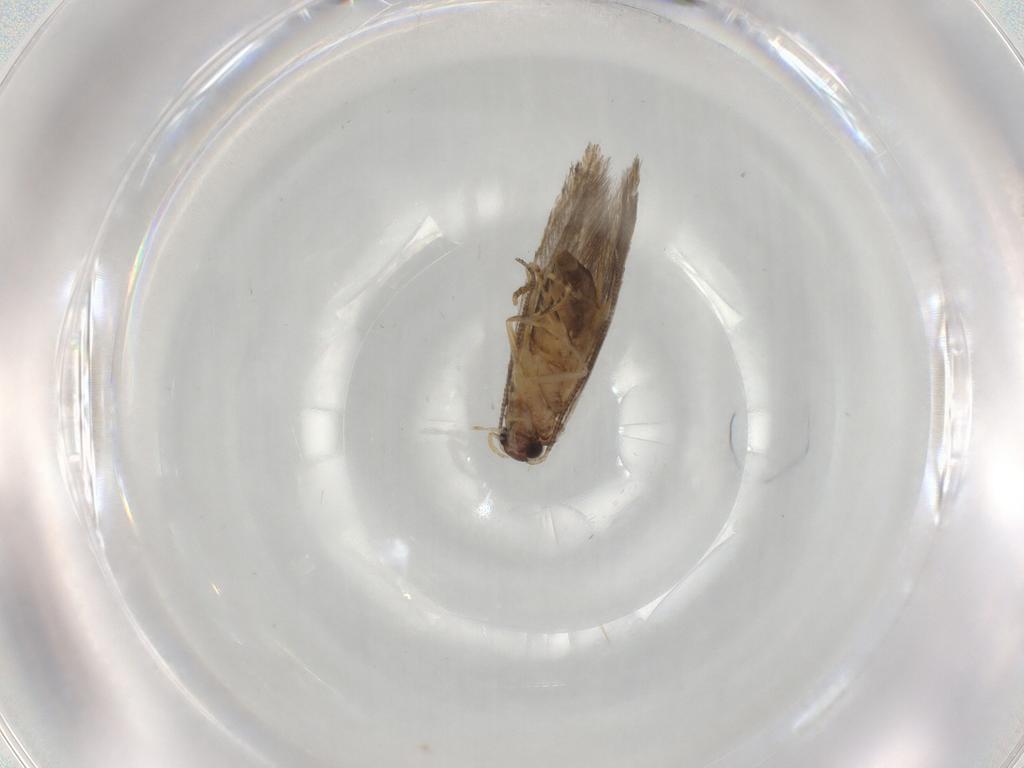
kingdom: Animalia
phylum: Arthropoda
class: Insecta
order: Lepidoptera
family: Tineidae
